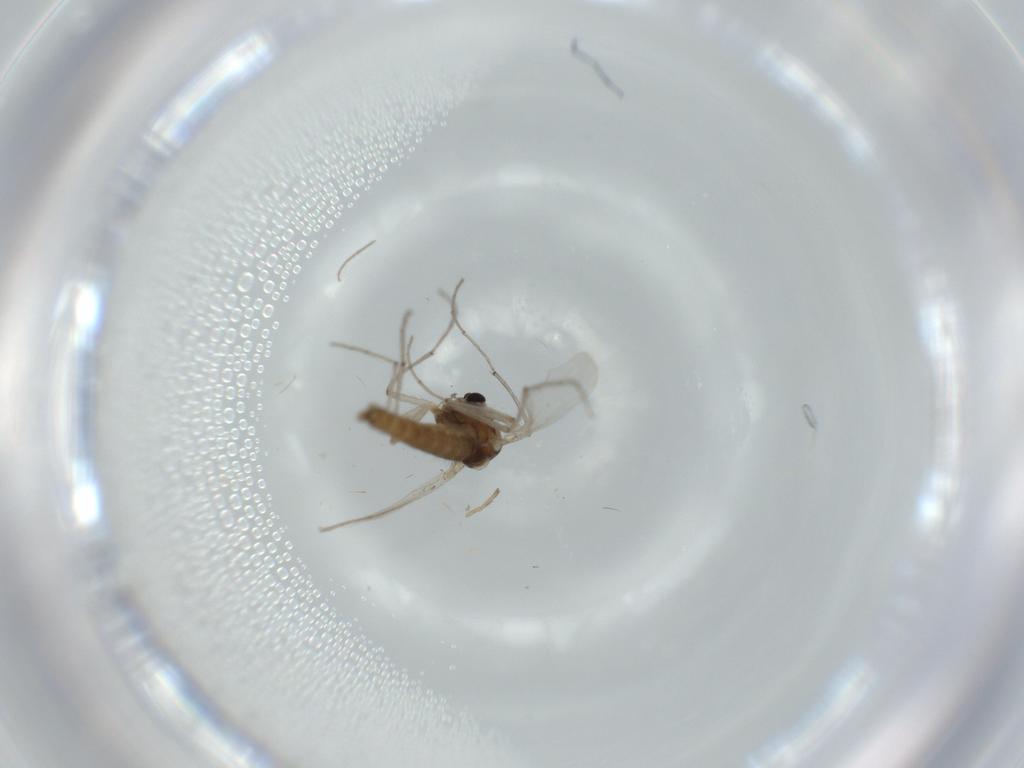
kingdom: Animalia
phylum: Arthropoda
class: Insecta
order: Diptera
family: Chironomidae
